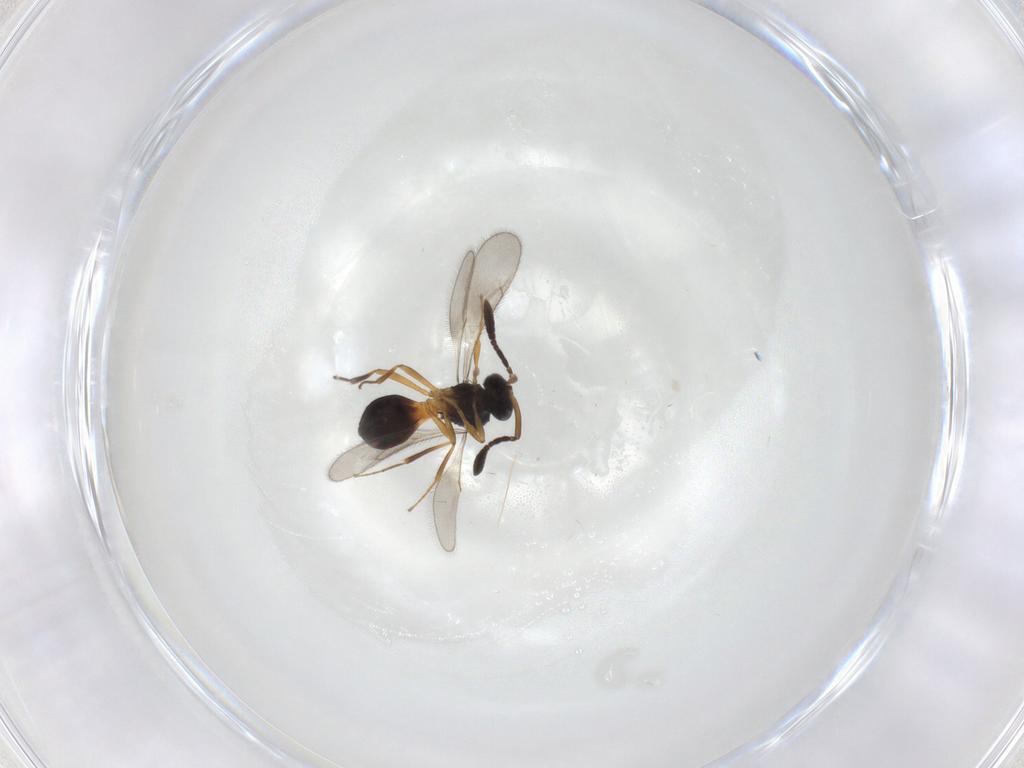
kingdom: Animalia
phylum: Arthropoda
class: Insecta
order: Hymenoptera
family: Scelionidae
